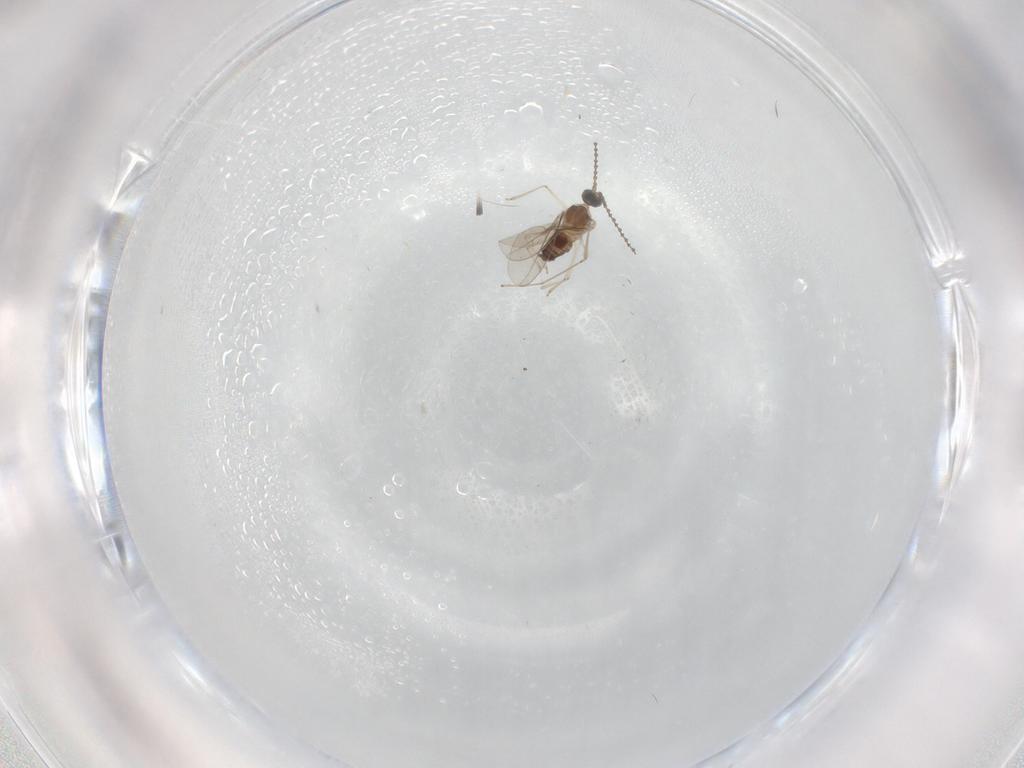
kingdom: Animalia
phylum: Arthropoda
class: Insecta
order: Diptera
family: Cecidomyiidae
